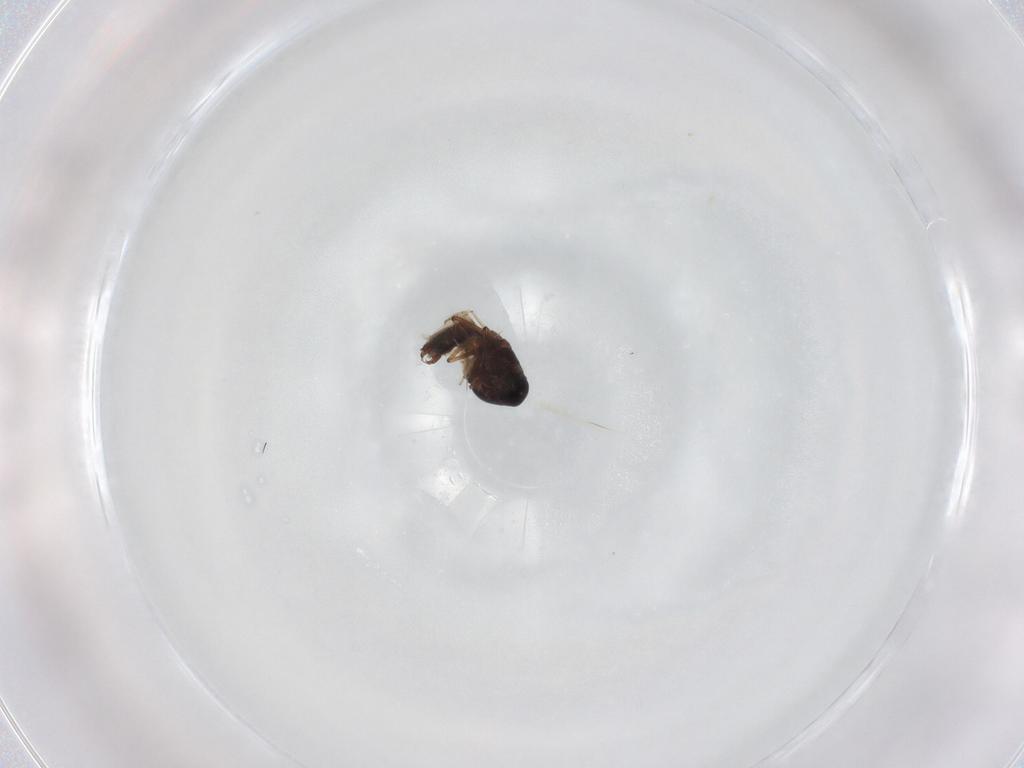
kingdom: Animalia
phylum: Arthropoda
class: Insecta
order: Diptera
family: Ceratopogonidae
